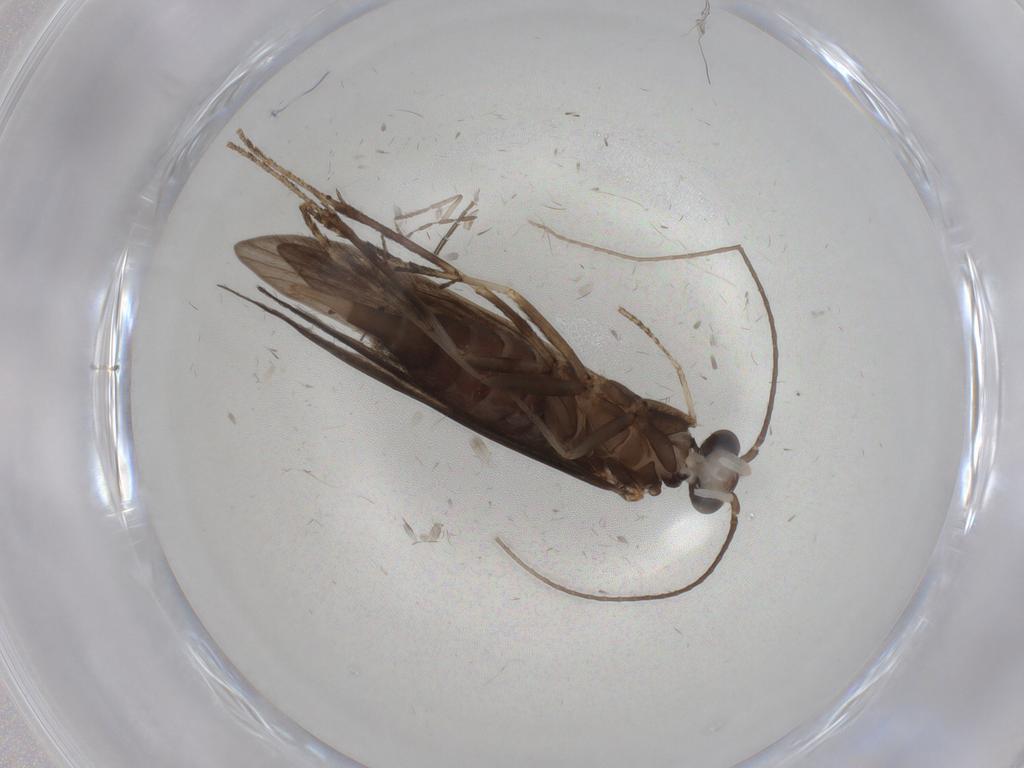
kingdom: Animalia
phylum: Arthropoda
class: Insecta
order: Trichoptera
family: Xiphocentronidae
